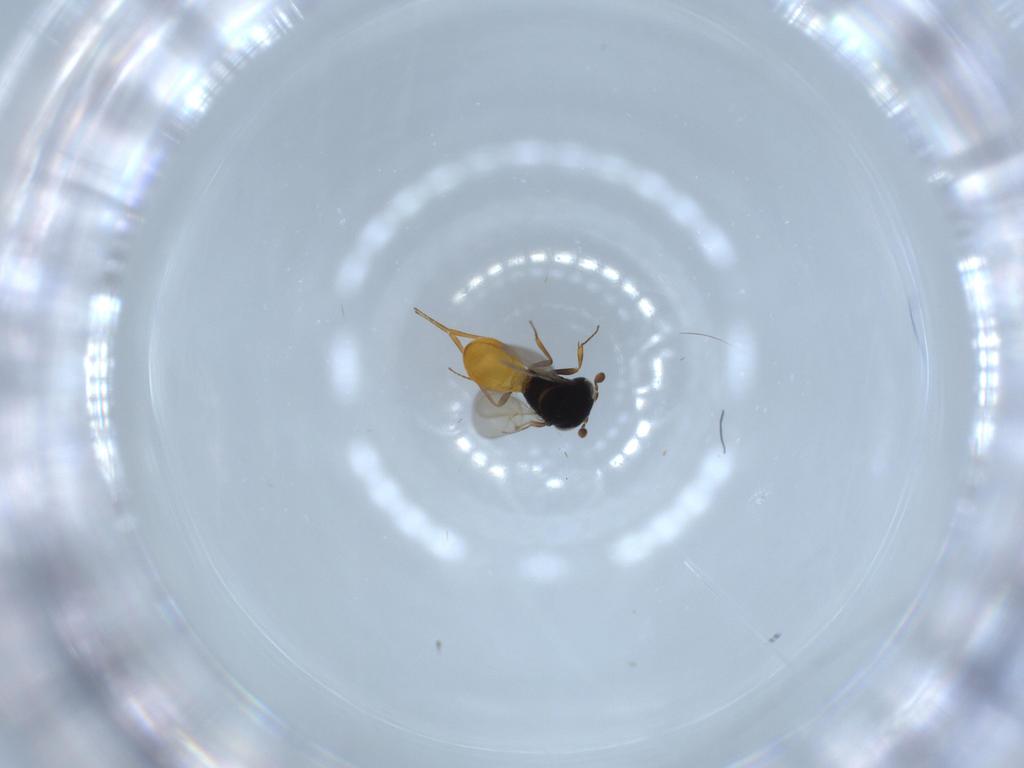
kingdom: Animalia
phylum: Arthropoda
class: Insecta
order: Hymenoptera
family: Scelionidae
